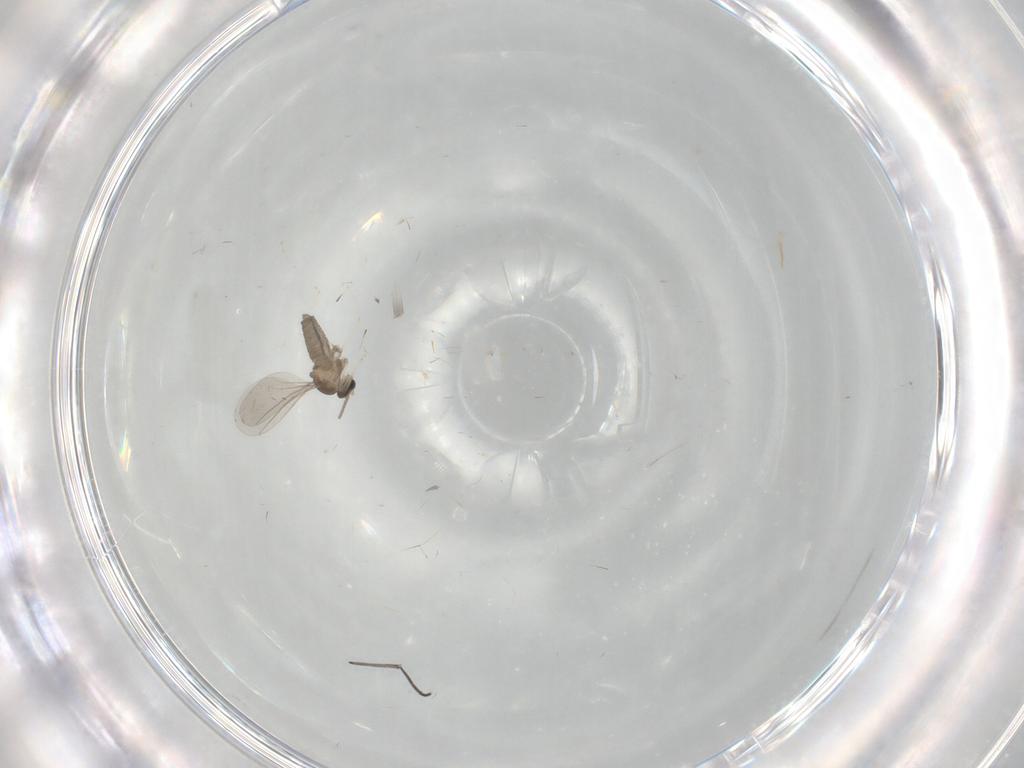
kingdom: Animalia
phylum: Arthropoda
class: Insecta
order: Diptera
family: Cecidomyiidae
